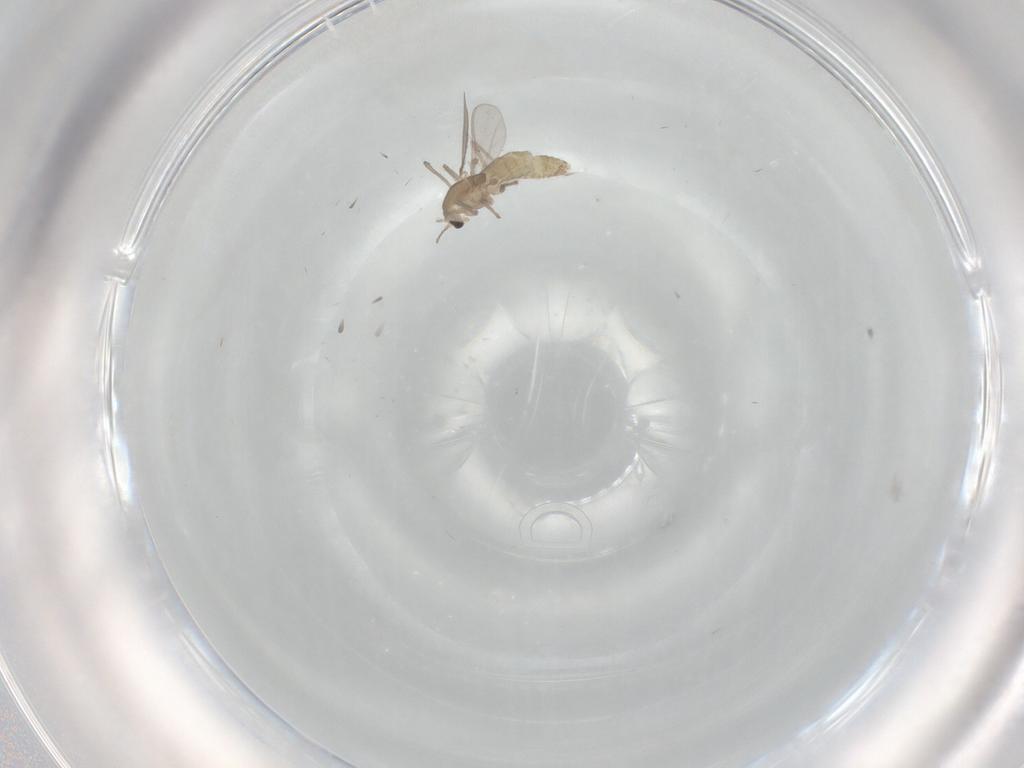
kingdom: Animalia
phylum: Arthropoda
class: Insecta
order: Diptera
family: Chironomidae
